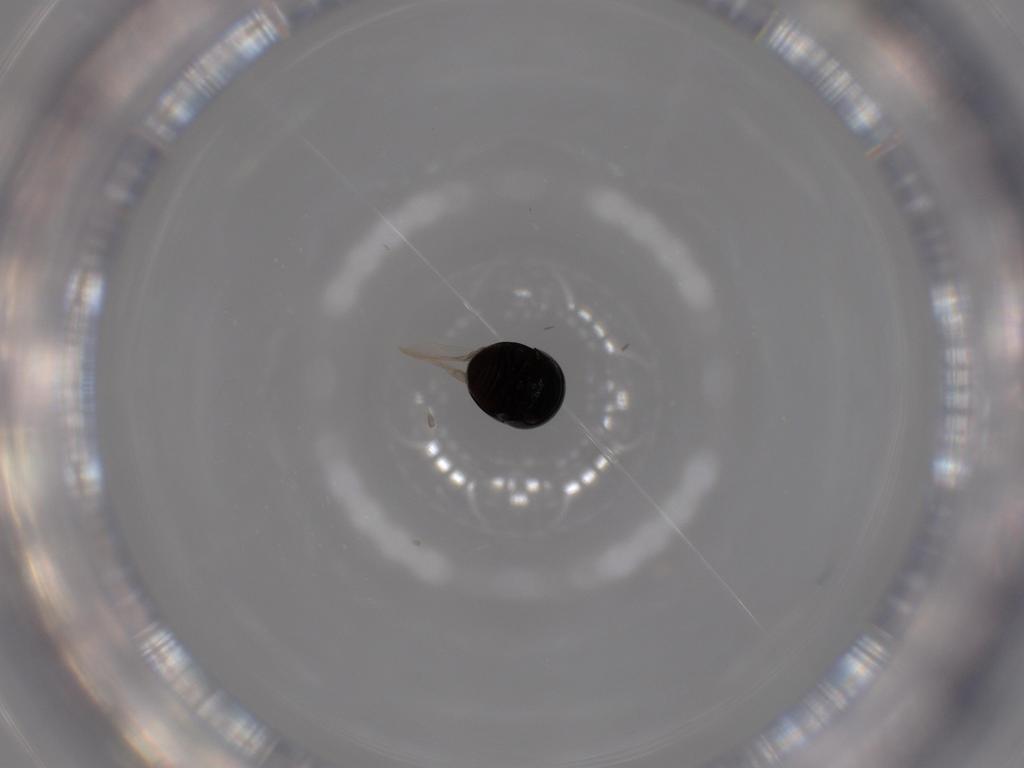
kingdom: Animalia
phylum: Arthropoda
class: Insecta
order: Coleoptera
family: Cybocephalidae
